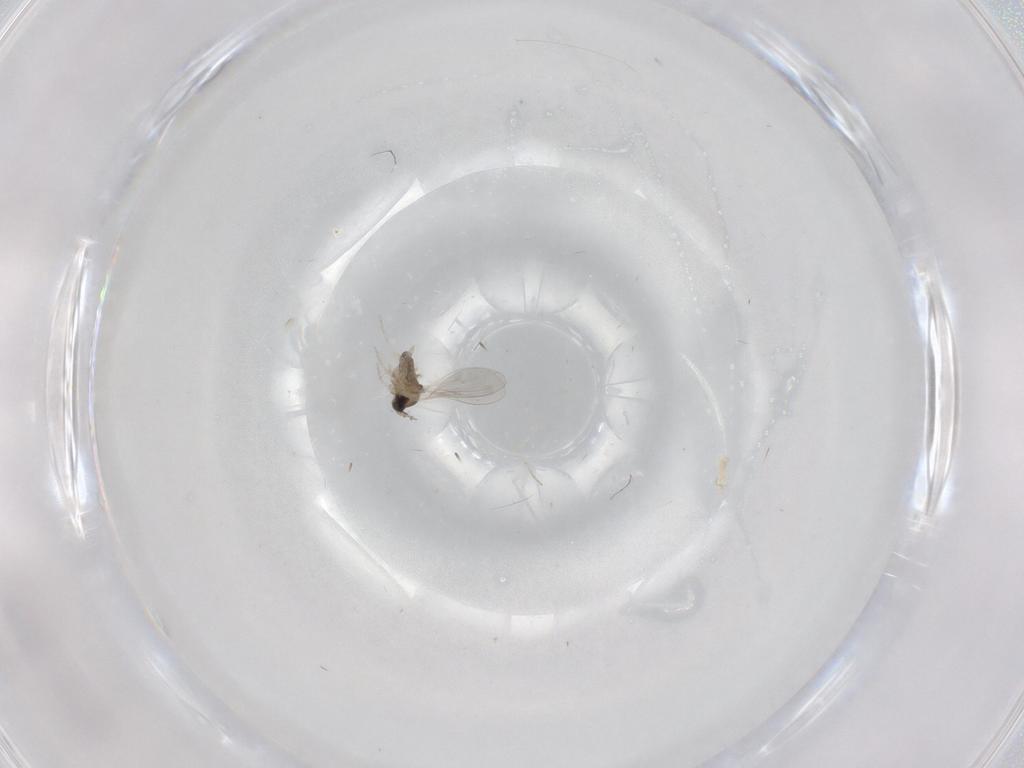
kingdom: Animalia
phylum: Arthropoda
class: Insecta
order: Diptera
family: Cecidomyiidae
